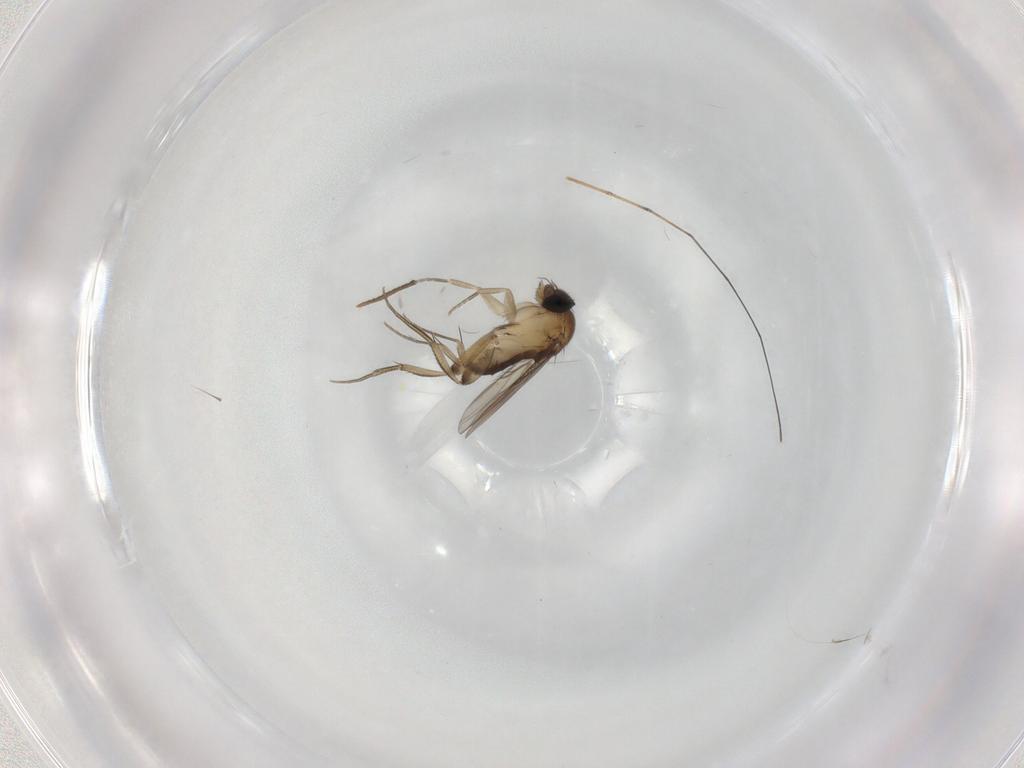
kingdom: Animalia
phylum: Arthropoda
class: Insecta
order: Diptera
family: Phoridae
